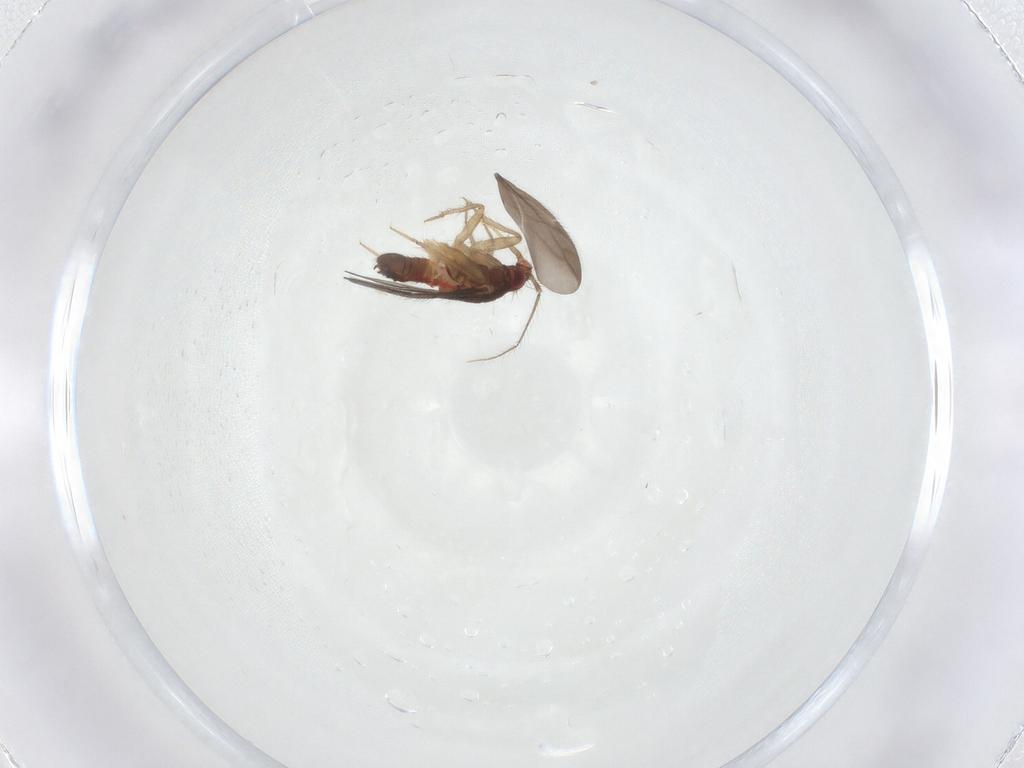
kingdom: Animalia
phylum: Arthropoda
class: Insecta
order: Hemiptera
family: Ceratocombidae
